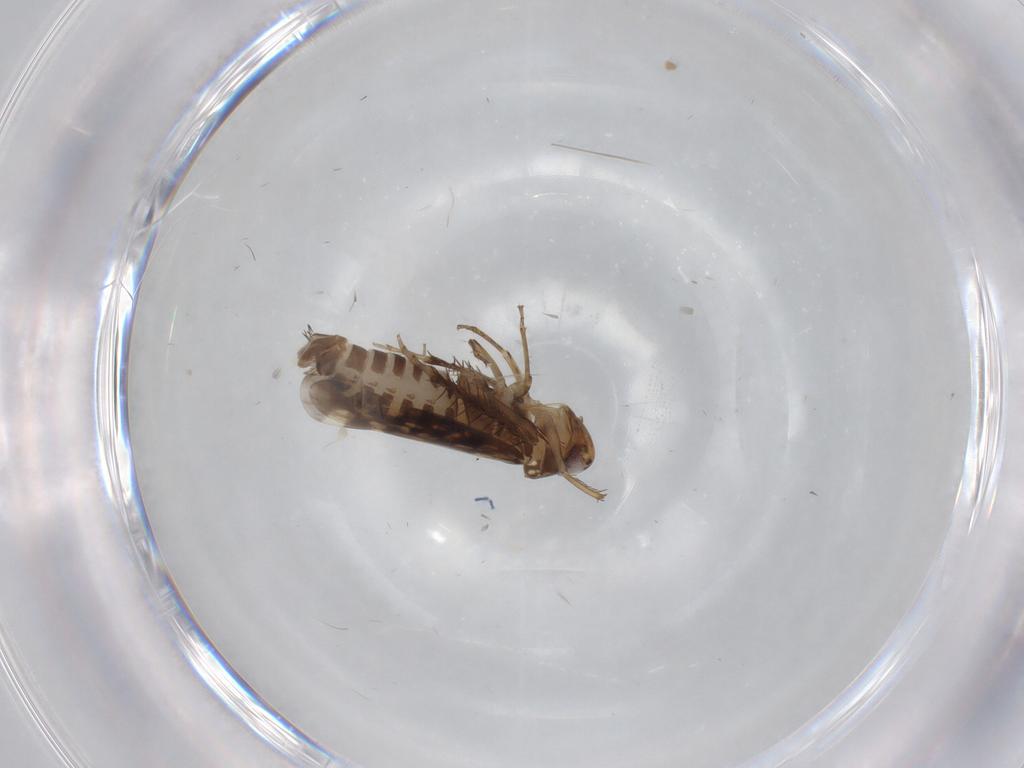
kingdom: Animalia
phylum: Arthropoda
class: Insecta
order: Hemiptera
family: Cicadellidae
